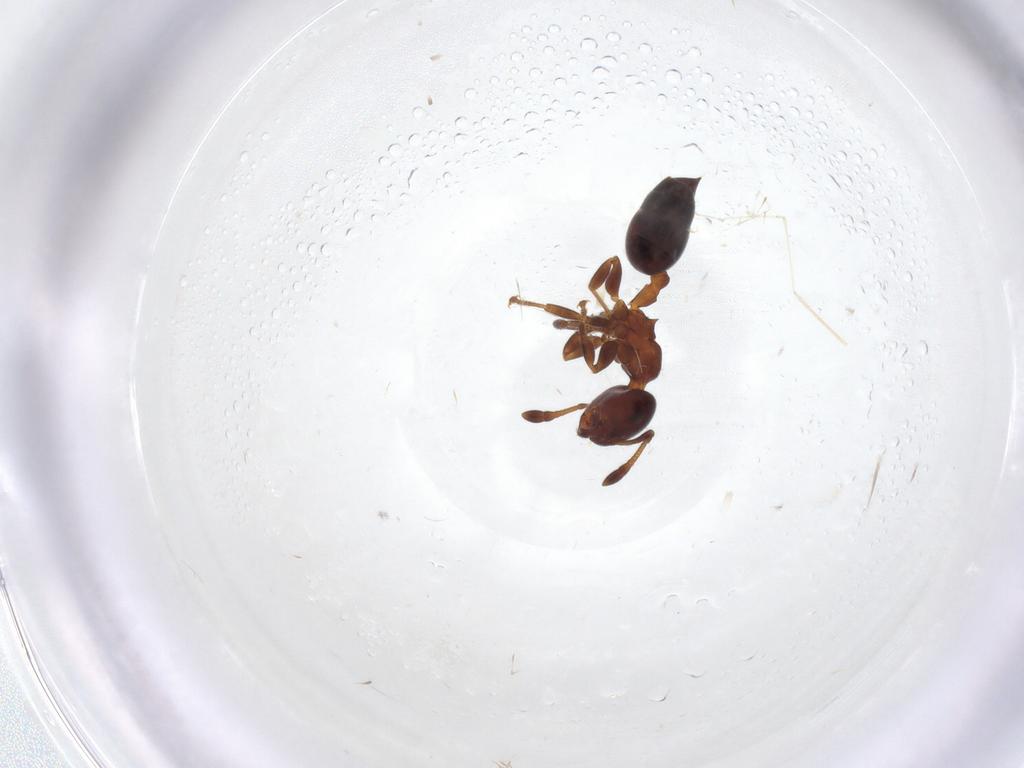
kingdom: Animalia
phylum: Arthropoda
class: Insecta
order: Hymenoptera
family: Formicidae
